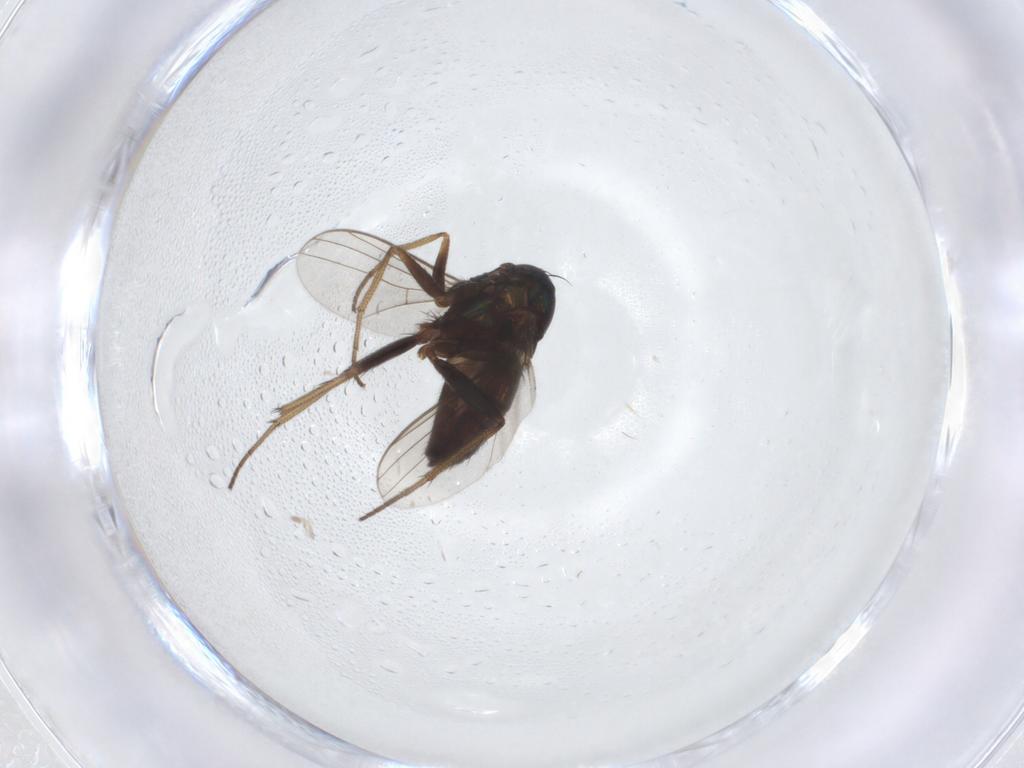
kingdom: Animalia
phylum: Arthropoda
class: Insecta
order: Diptera
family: Dolichopodidae
